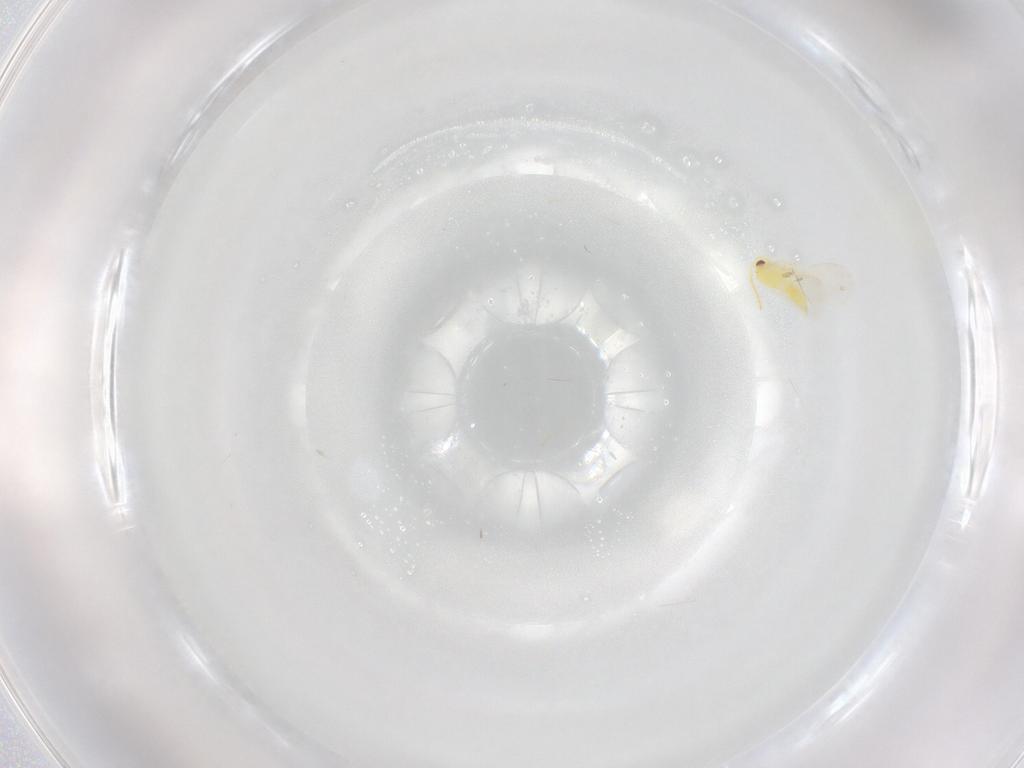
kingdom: Animalia
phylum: Arthropoda
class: Insecta
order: Hemiptera
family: Aleyrodidae
